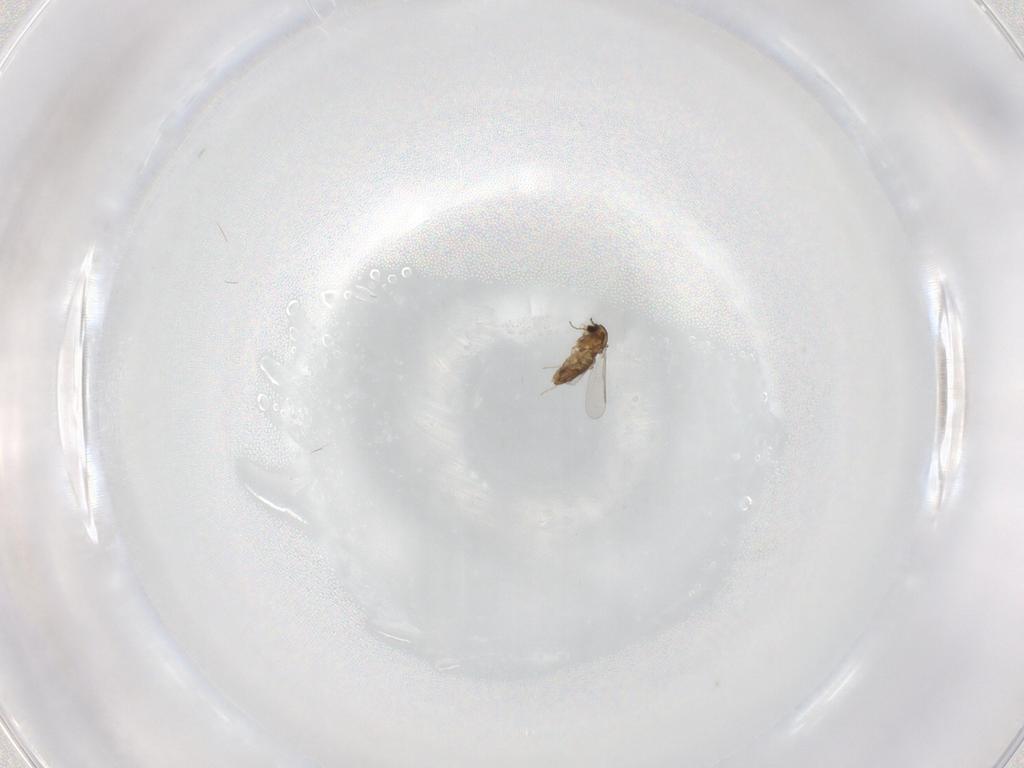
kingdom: Animalia
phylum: Arthropoda
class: Insecta
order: Diptera
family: Chironomidae
